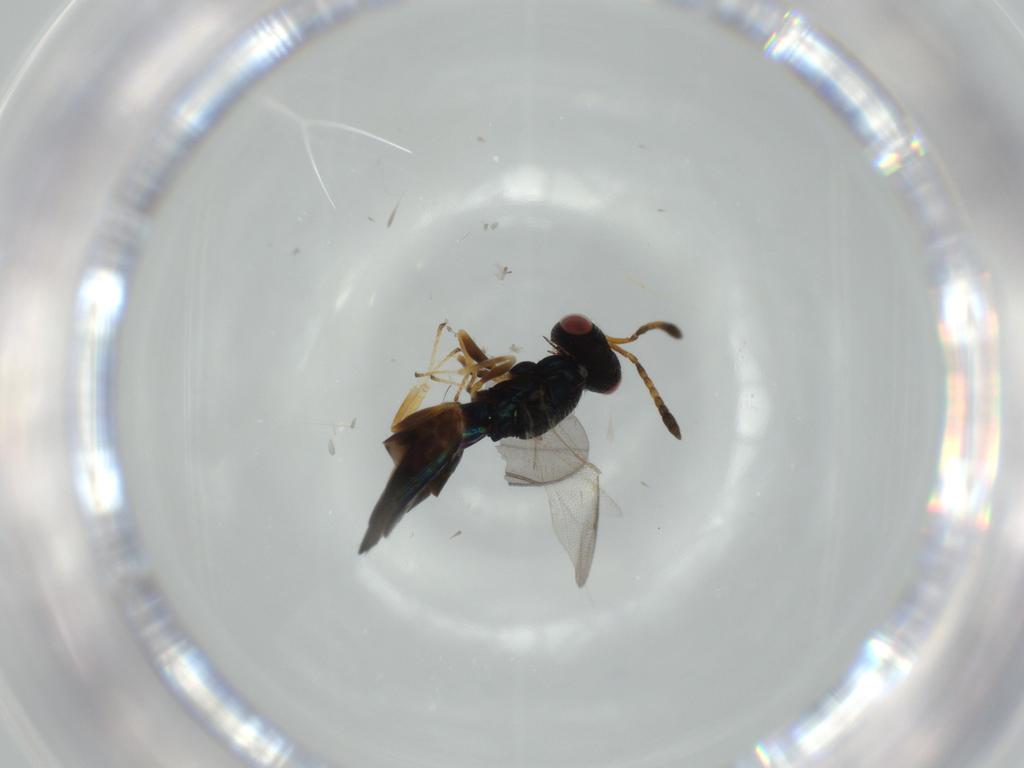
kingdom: Animalia
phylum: Arthropoda
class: Insecta
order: Hymenoptera
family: Pteromalidae
